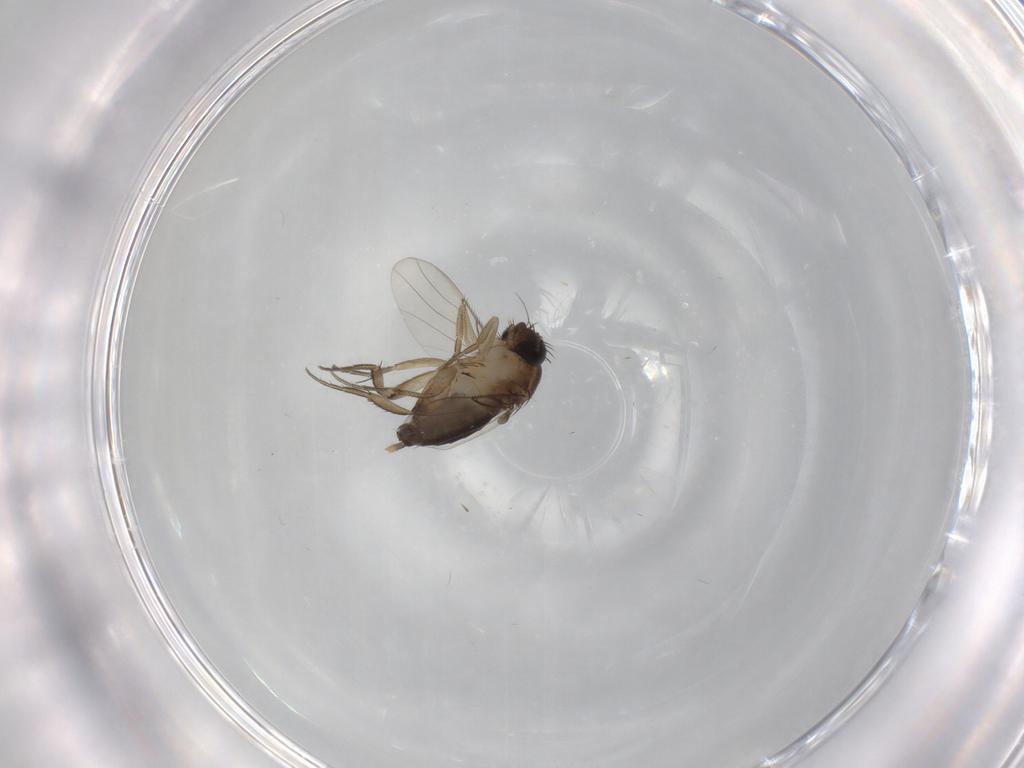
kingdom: Animalia
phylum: Arthropoda
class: Insecta
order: Diptera
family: Phoridae
